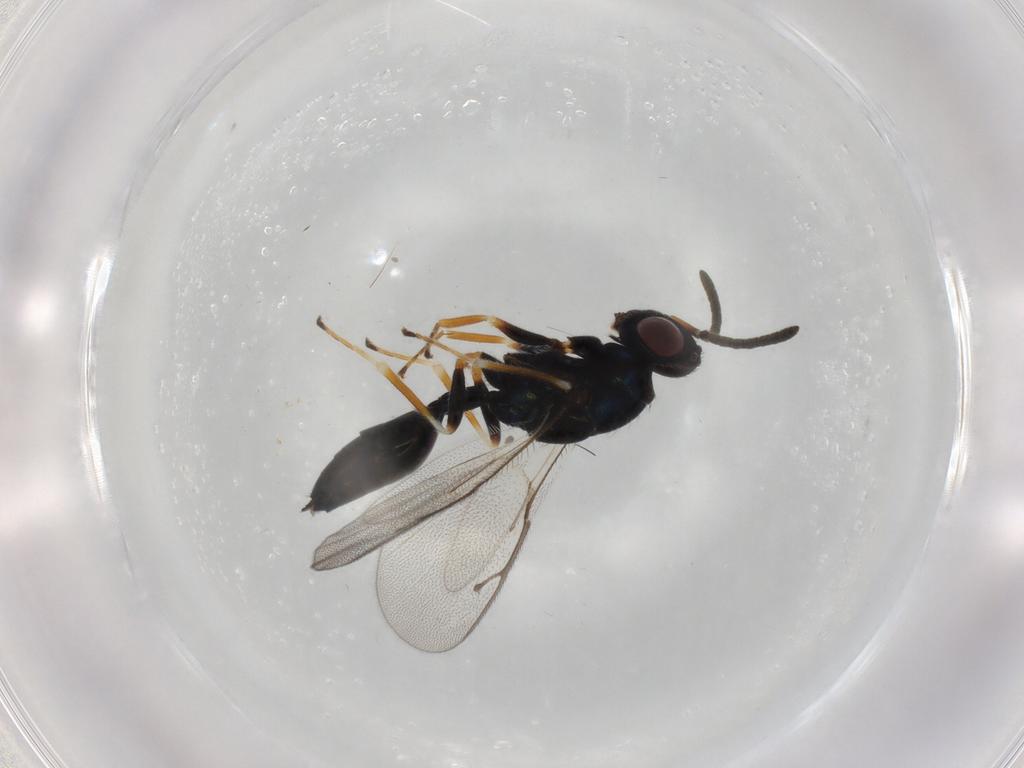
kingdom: Animalia
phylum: Arthropoda
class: Insecta
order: Hymenoptera
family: Pteromalidae
